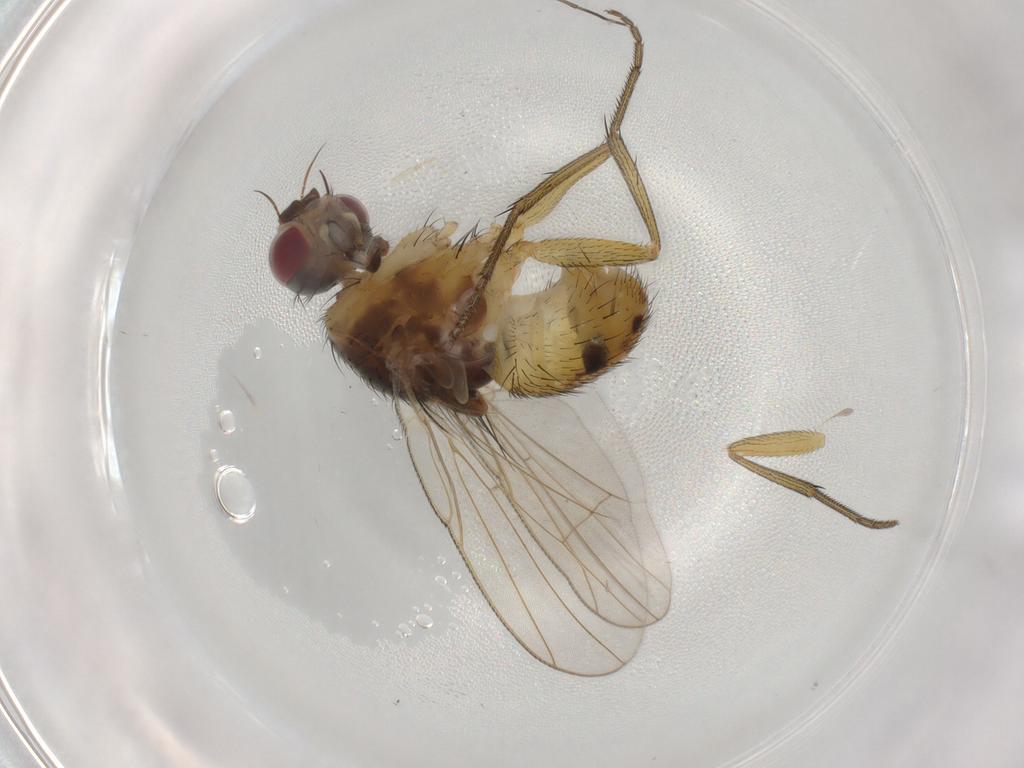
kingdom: Animalia
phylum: Arthropoda
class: Insecta
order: Diptera
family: Muscidae
